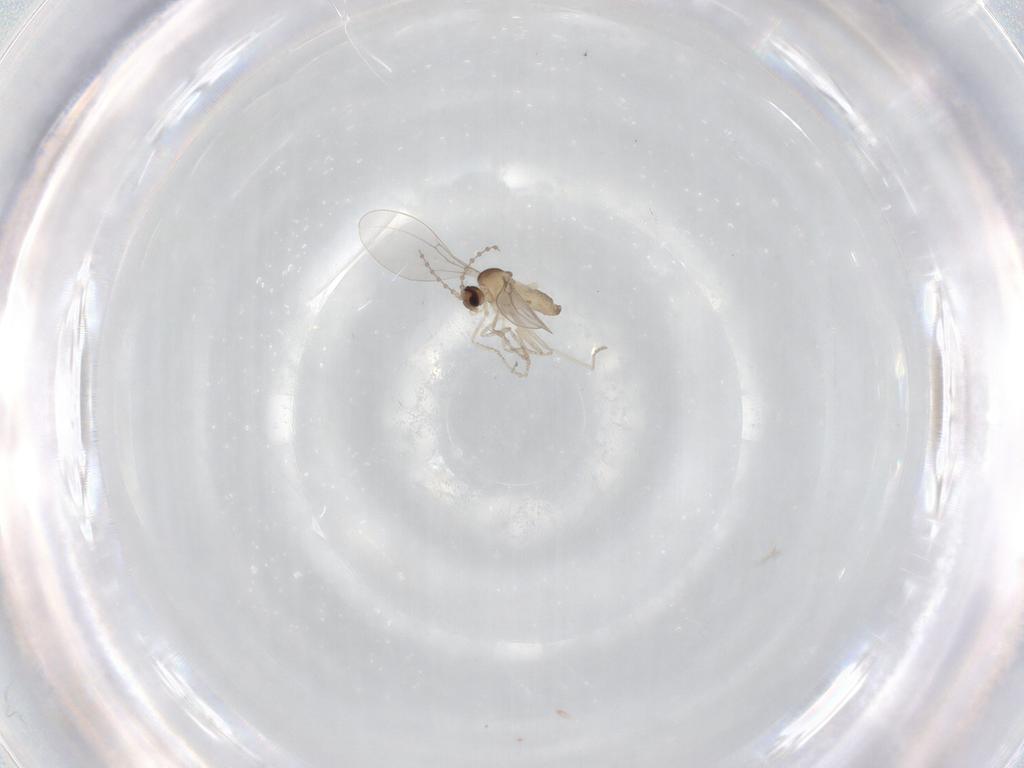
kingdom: Animalia
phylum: Arthropoda
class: Insecta
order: Diptera
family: Cecidomyiidae
